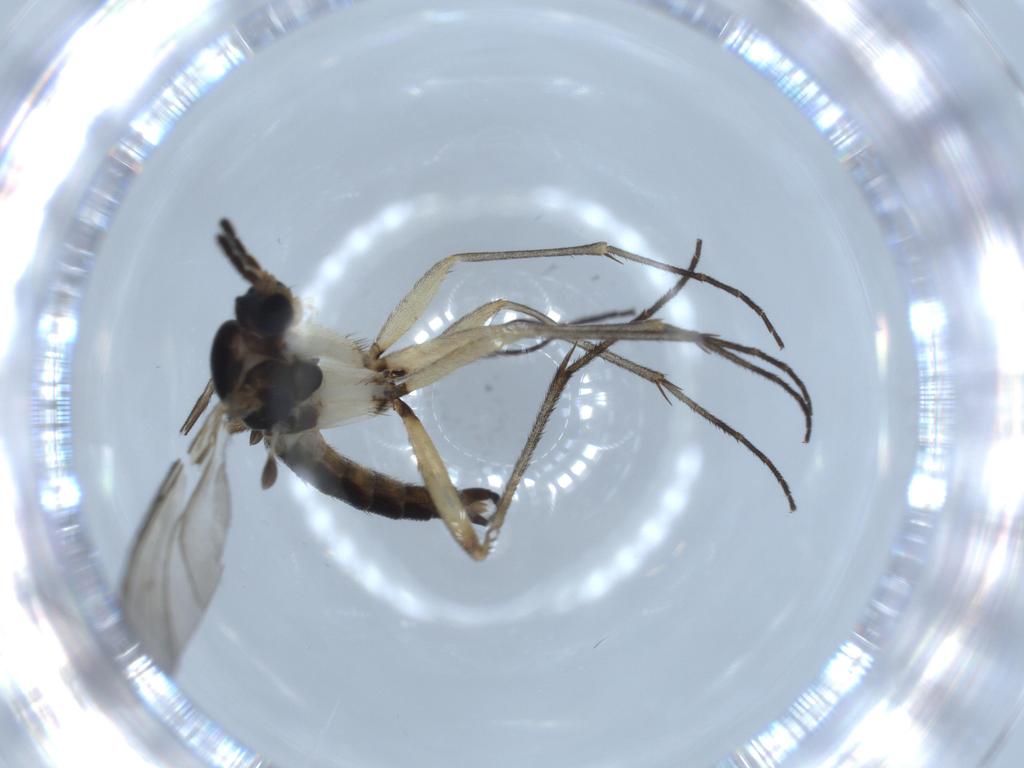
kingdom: Animalia
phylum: Arthropoda
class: Insecta
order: Diptera
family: Sciaridae
